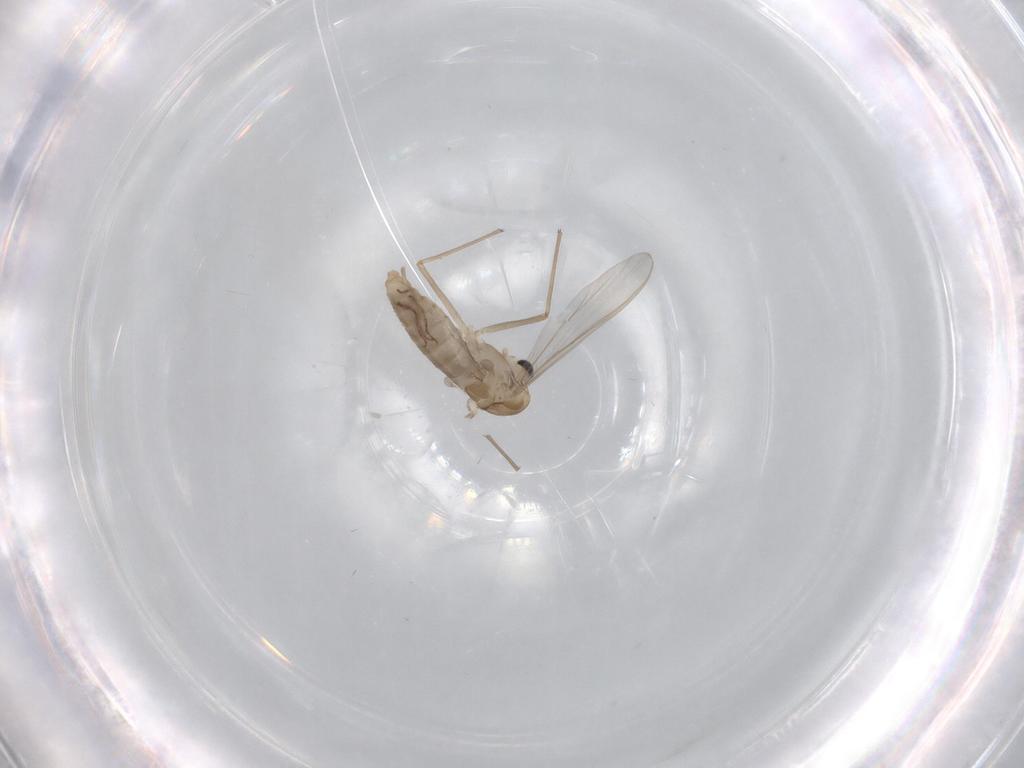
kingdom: Animalia
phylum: Arthropoda
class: Insecta
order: Diptera
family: Chironomidae
